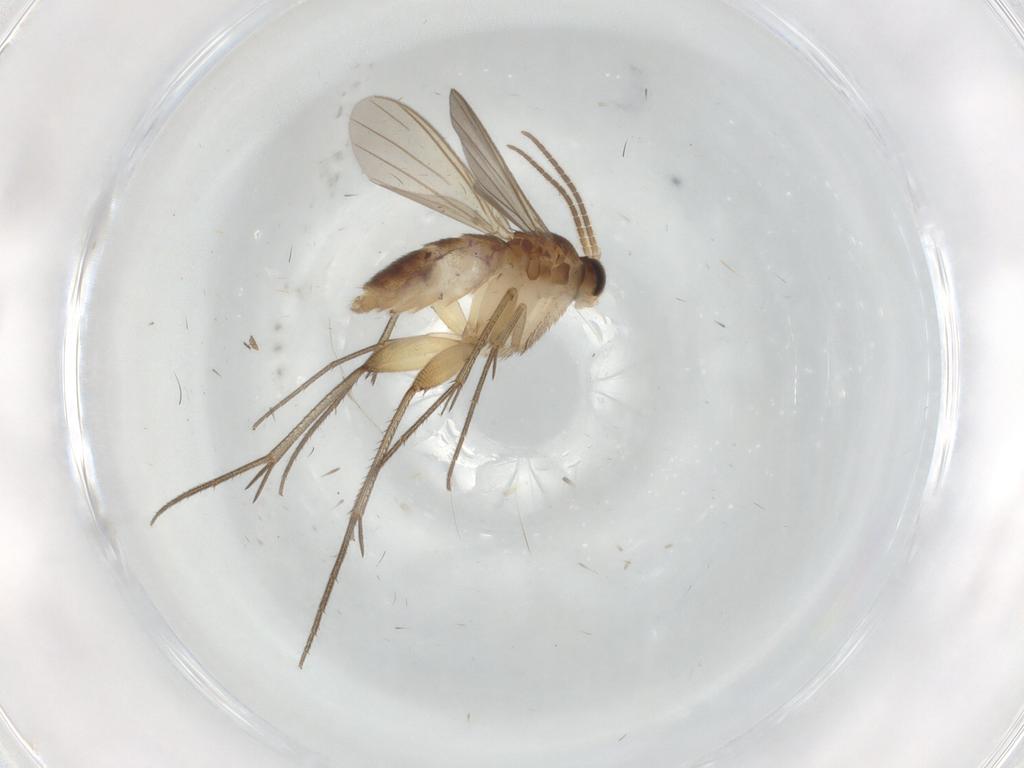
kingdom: Animalia
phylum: Arthropoda
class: Insecta
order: Diptera
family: Mycetophilidae
